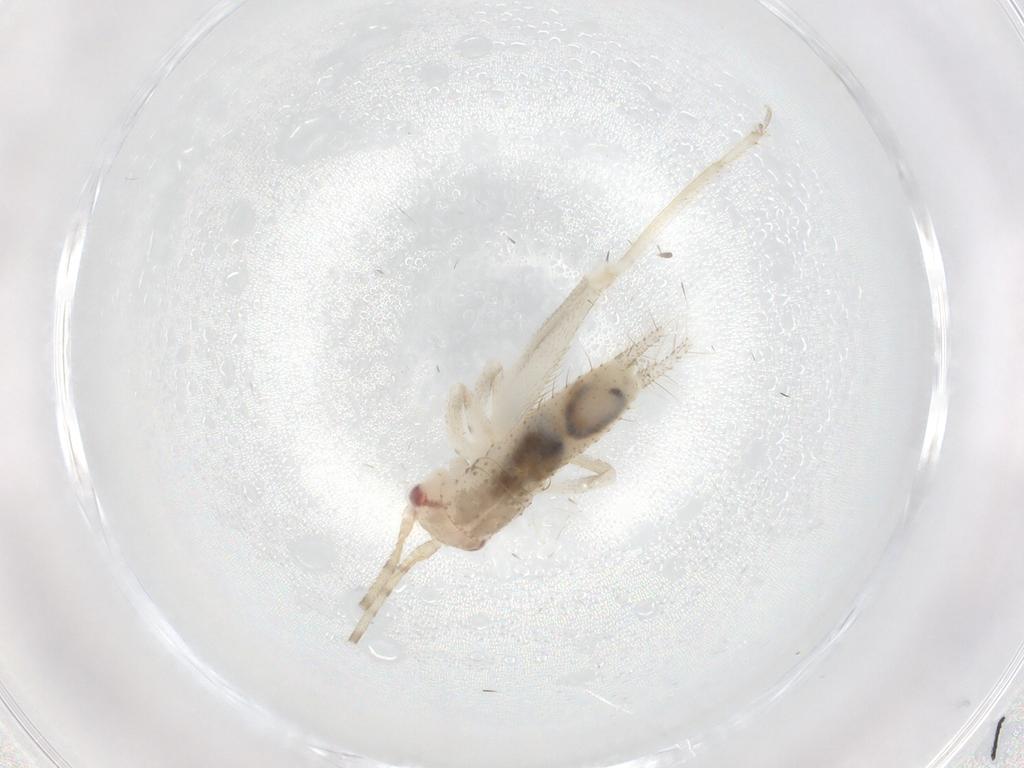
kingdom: Animalia
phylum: Arthropoda
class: Insecta
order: Orthoptera
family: Gryllidae
